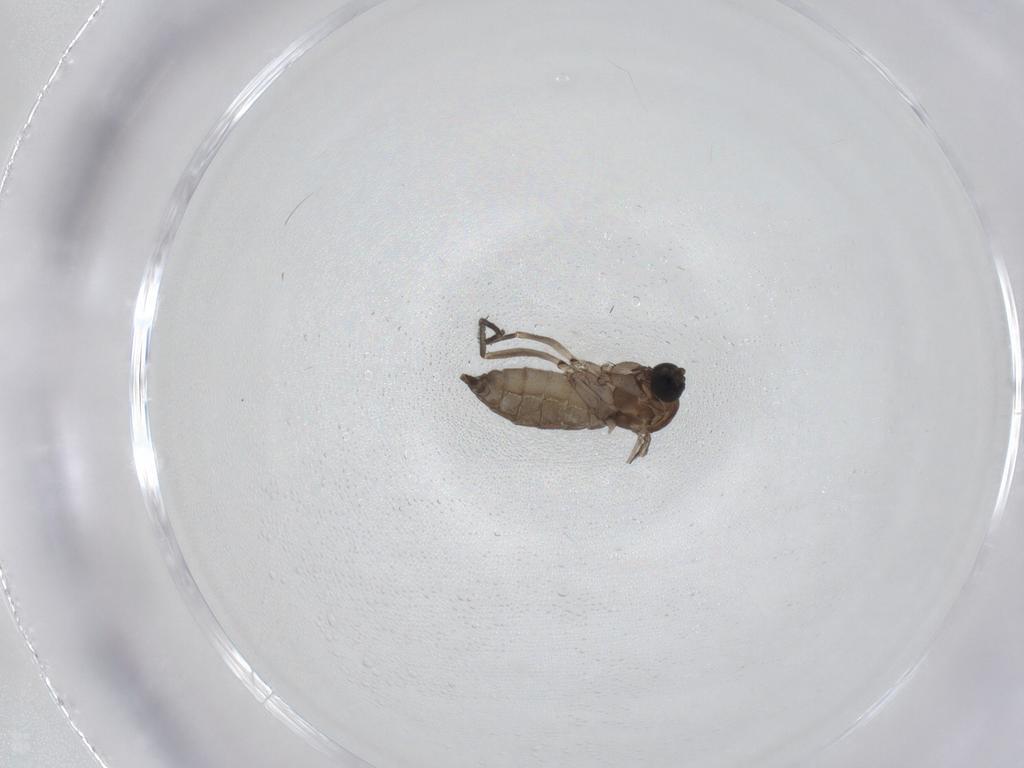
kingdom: Animalia
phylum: Arthropoda
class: Insecta
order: Diptera
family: Sciaridae
